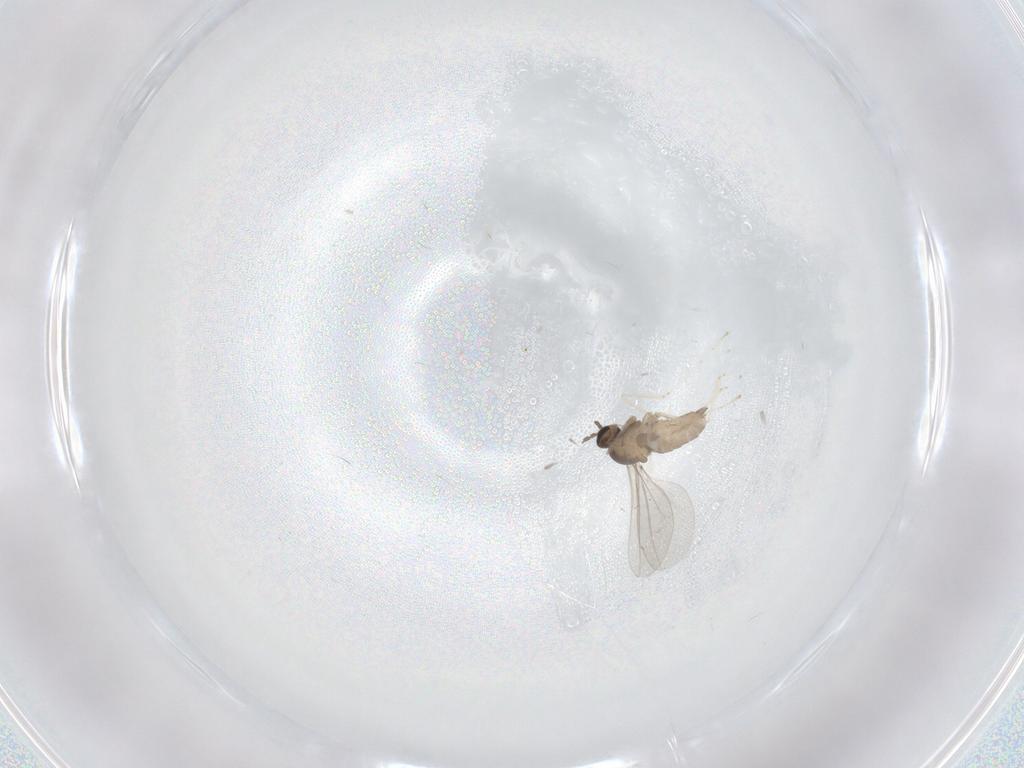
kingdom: Animalia
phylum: Arthropoda
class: Insecta
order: Diptera
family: Cecidomyiidae
